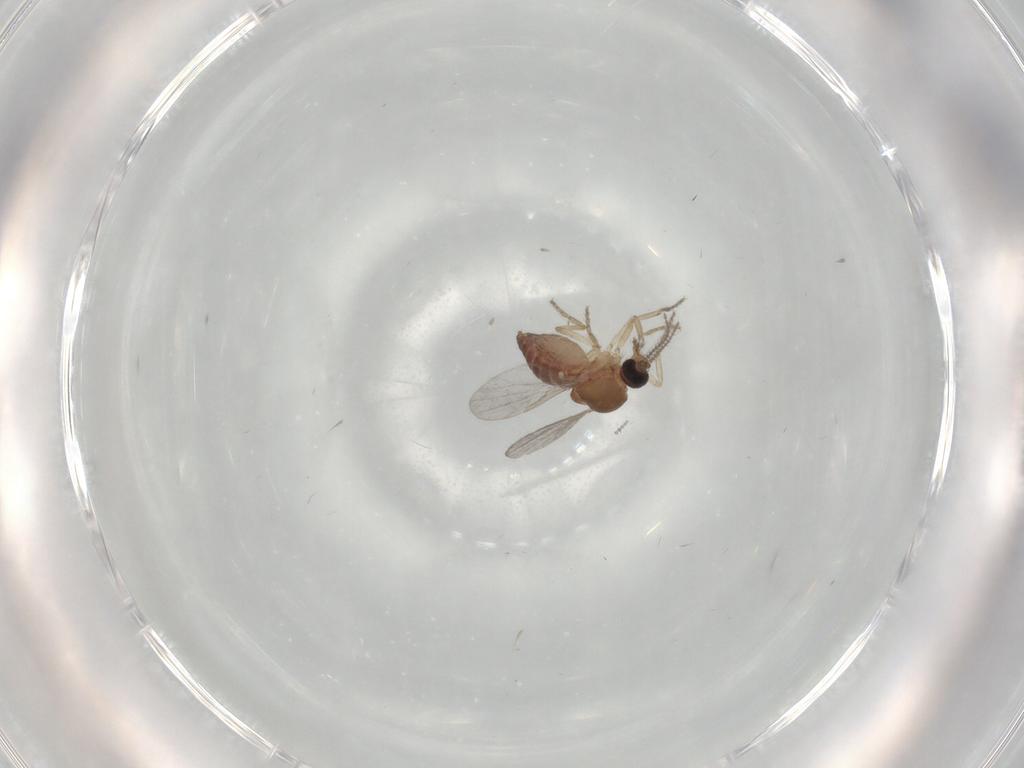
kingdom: Animalia
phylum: Arthropoda
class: Insecta
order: Diptera
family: Ceratopogonidae
